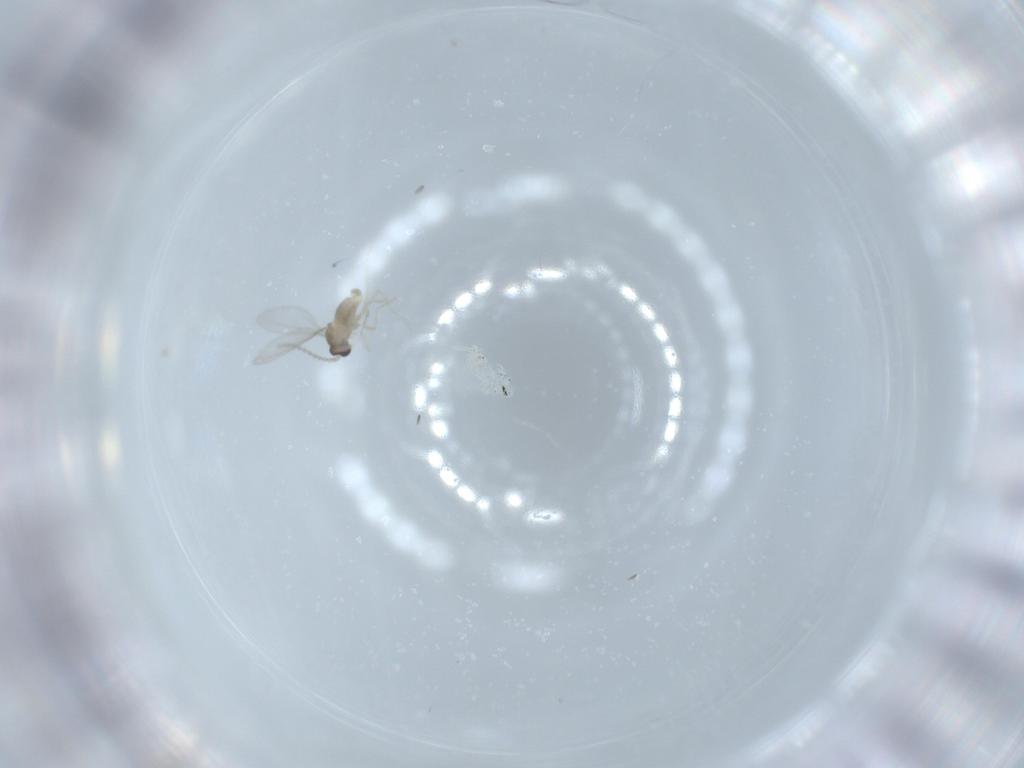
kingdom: Animalia
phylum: Arthropoda
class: Insecta
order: Diptera
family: Cecidomyiidae
